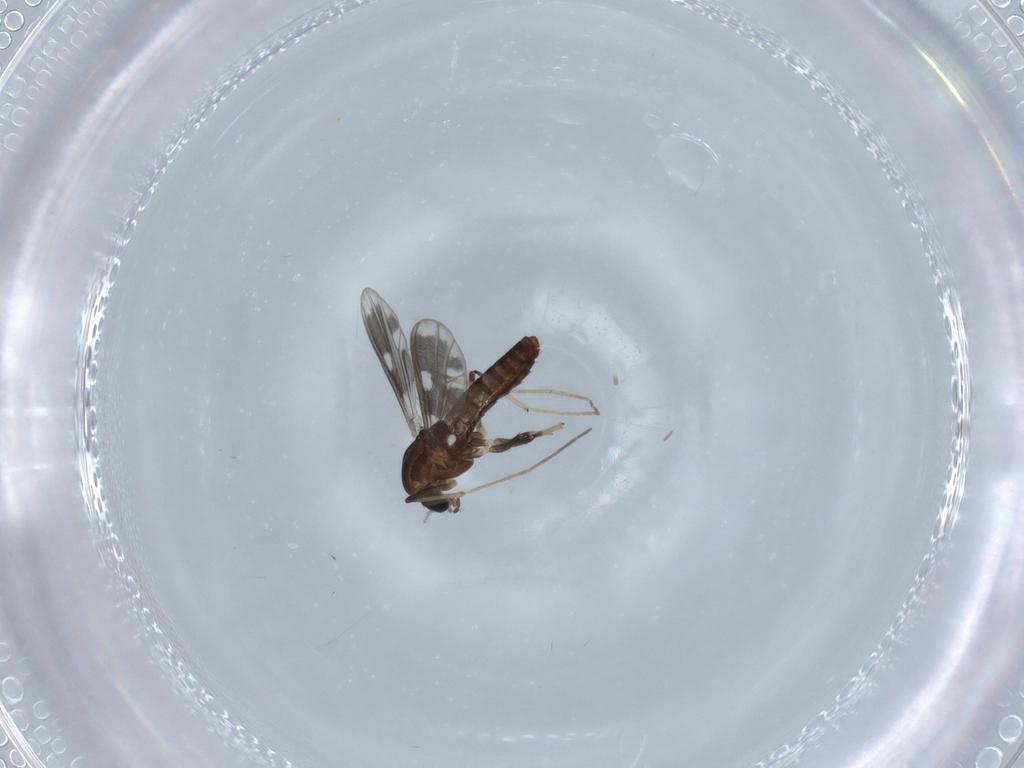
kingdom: Animalia
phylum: Arthropoda
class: Insecta
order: Diptera
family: Chironomidae
